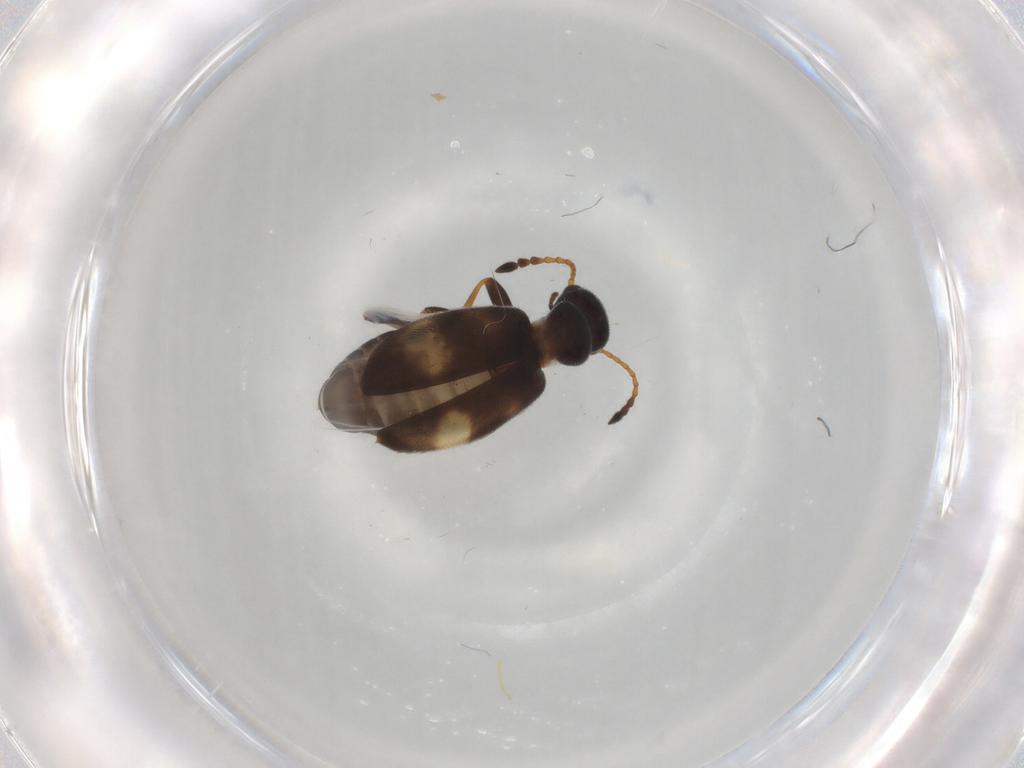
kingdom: Animalia
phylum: Arthropoda
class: Insecta
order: Coleoptera
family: Anthicidae
